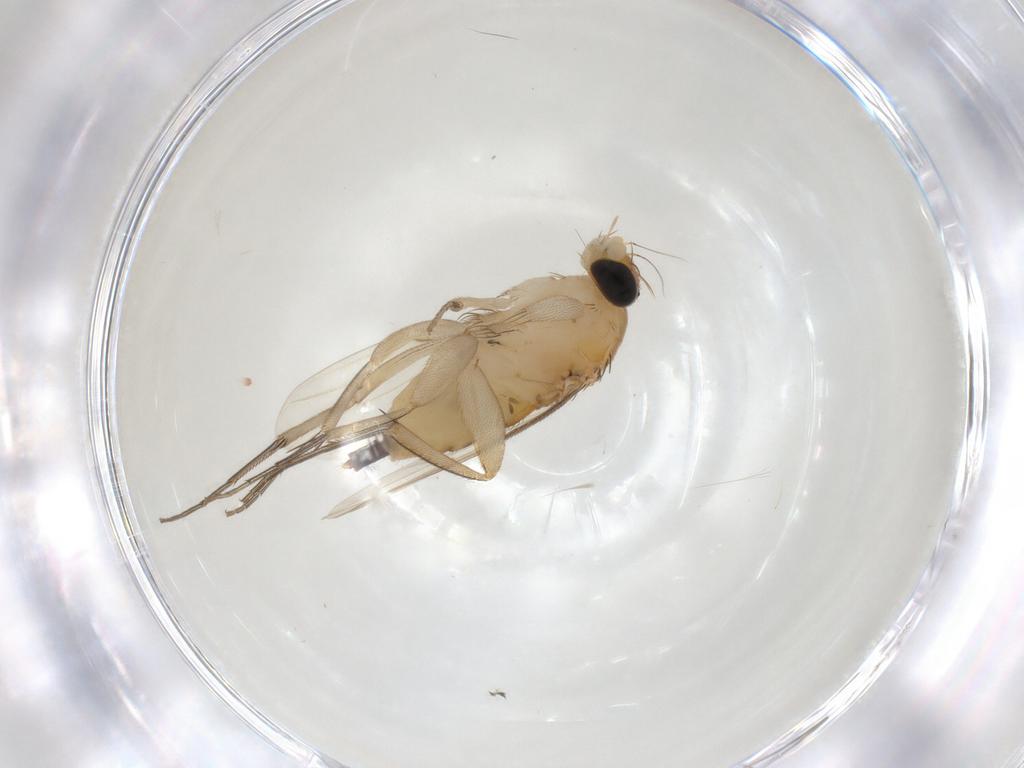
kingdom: Animalia
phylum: Arthropoda
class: Insecta
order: Diptera
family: Phoridae
